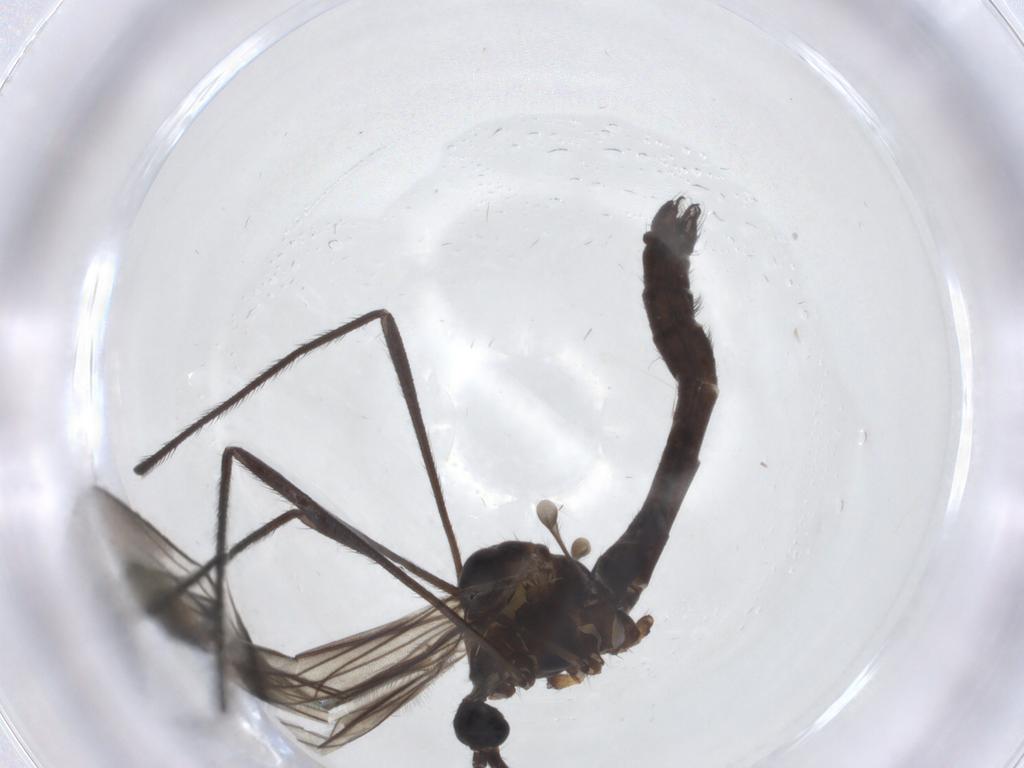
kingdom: Animalia
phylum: Arthropoda
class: Insecta
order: Diptera
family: Limoniidae
